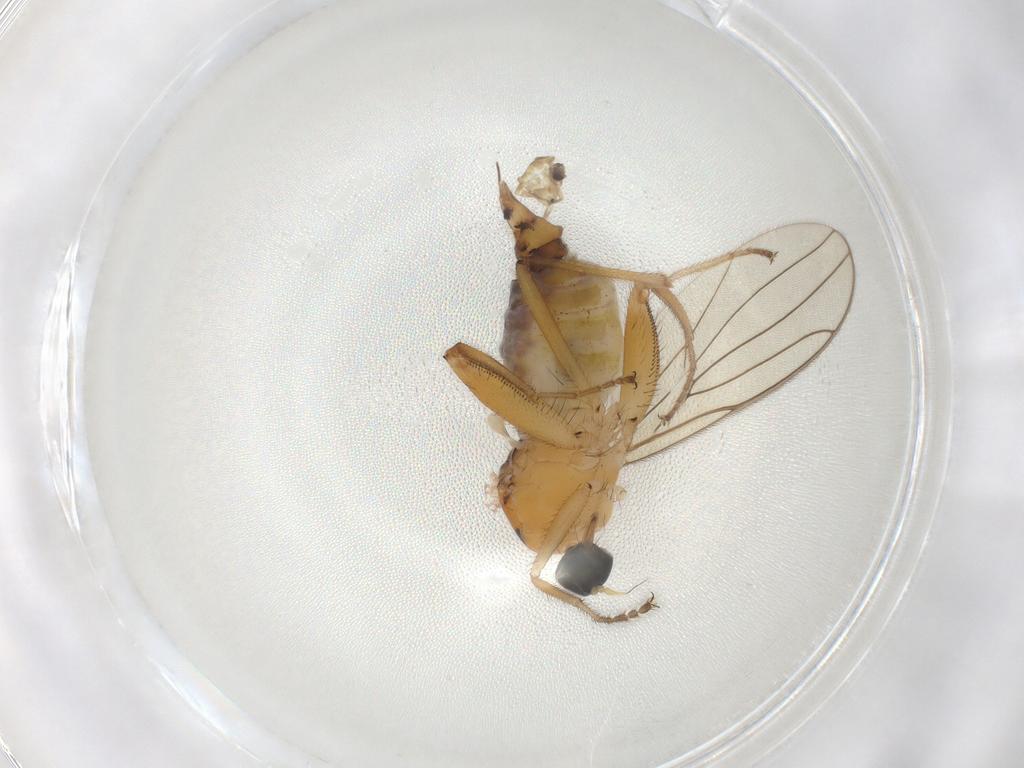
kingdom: Animalia
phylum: Arthropoda
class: Insecta
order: Diptera
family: Hybotidae
